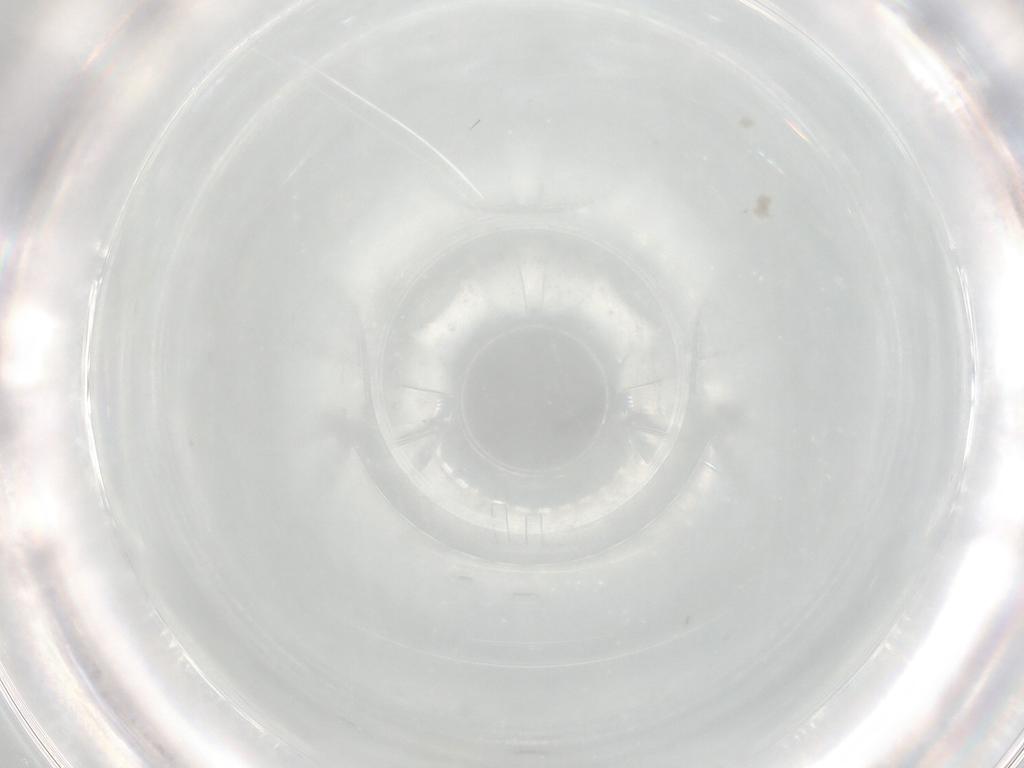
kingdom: Animalia
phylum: Arthropoda
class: Insecta
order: Diptera
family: Cecidomyiidae
